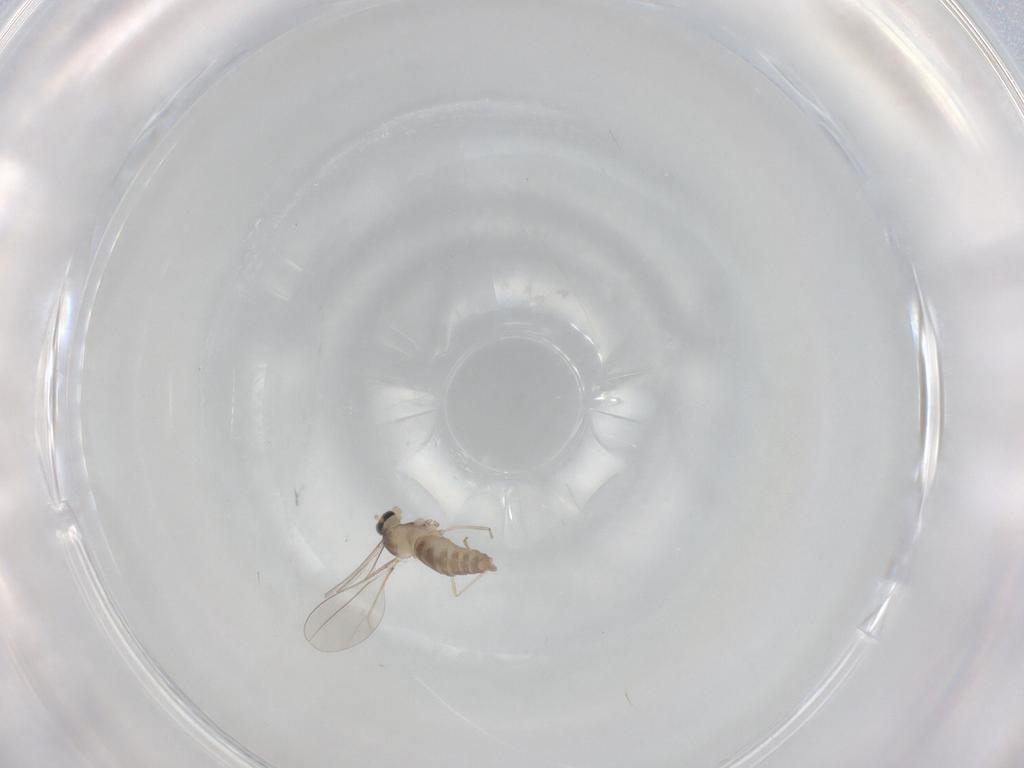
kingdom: Animalia
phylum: Arthropoda
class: Insecta
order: Diptera
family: Cecidomyiidae
